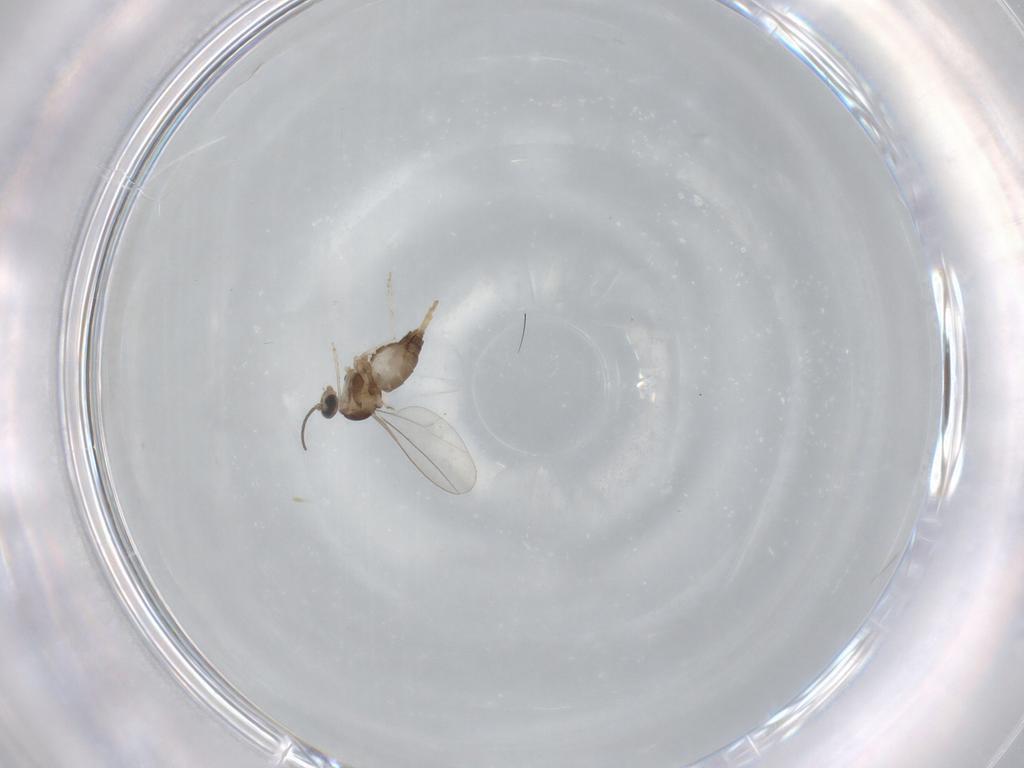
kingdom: Animalia
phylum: Arthropoda
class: Insecta
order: Diptera
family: Cecidomyiidae
